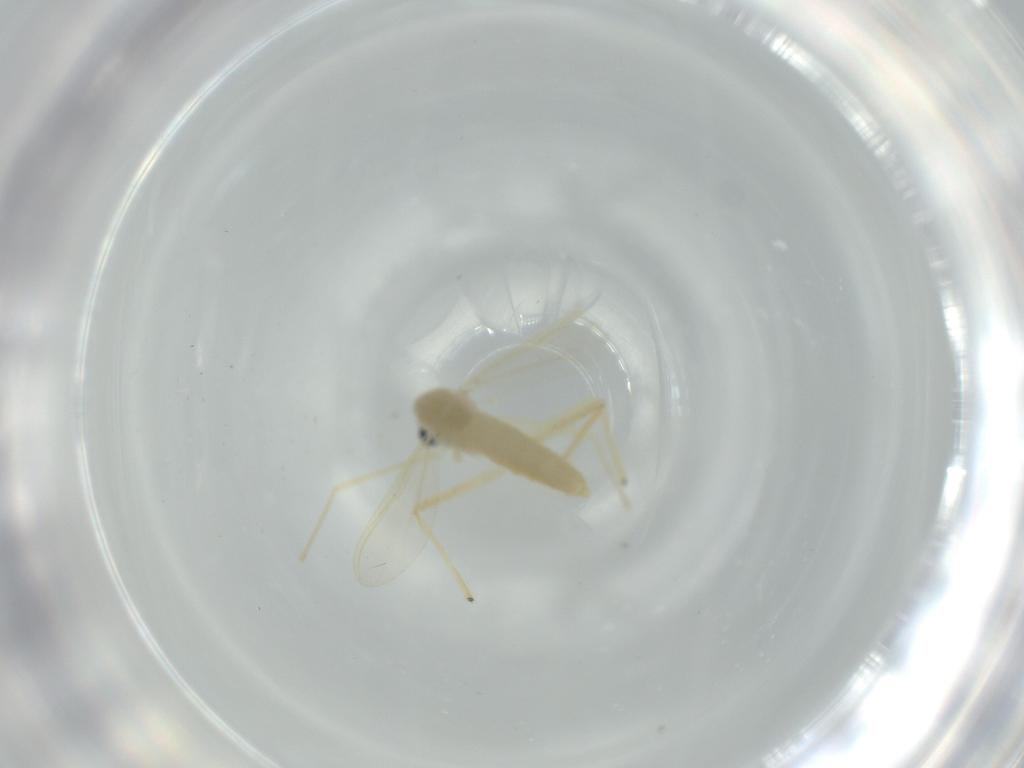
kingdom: Animalia
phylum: Arthropoda
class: Insecta
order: Diptera
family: Chironomidae
